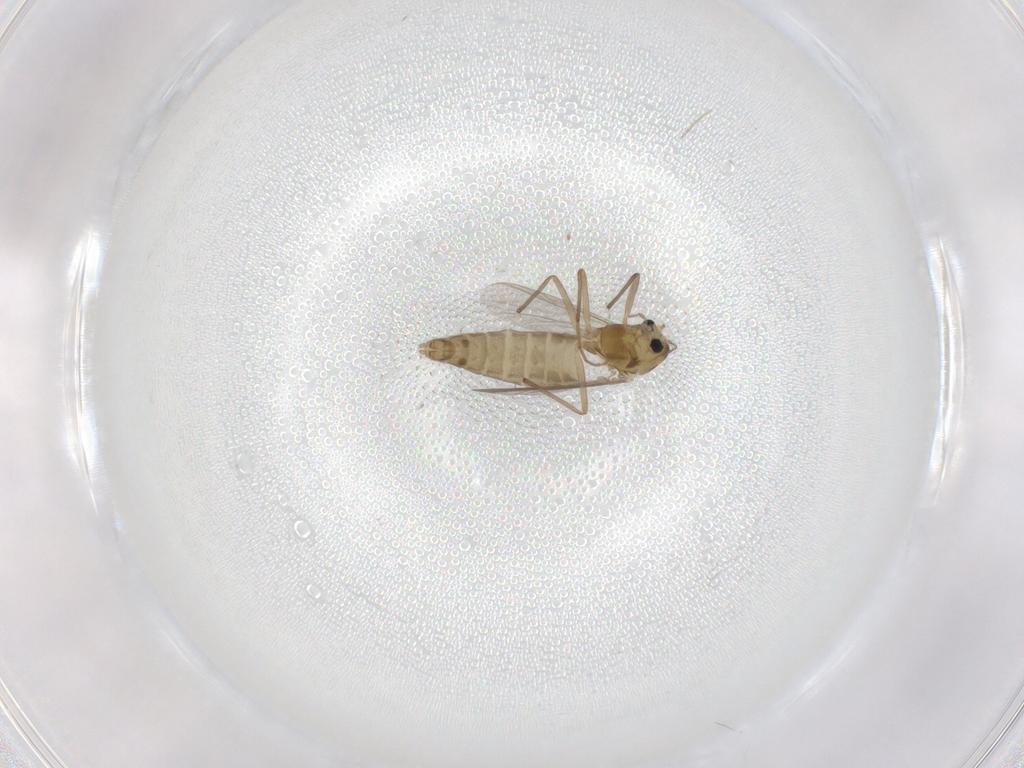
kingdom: Animalia
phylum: Arthropoda
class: Insecta
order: Diptera
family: Chironomidae
